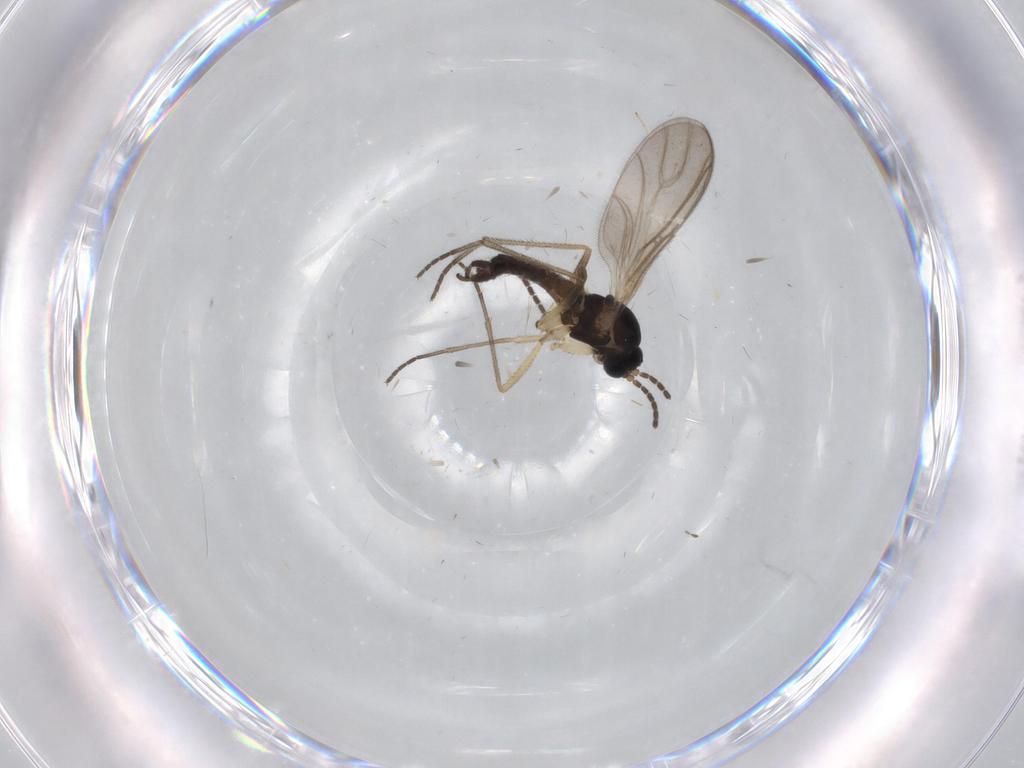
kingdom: Animalia
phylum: Arthropoda
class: Insecta
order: Diptera
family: Sciaridae
